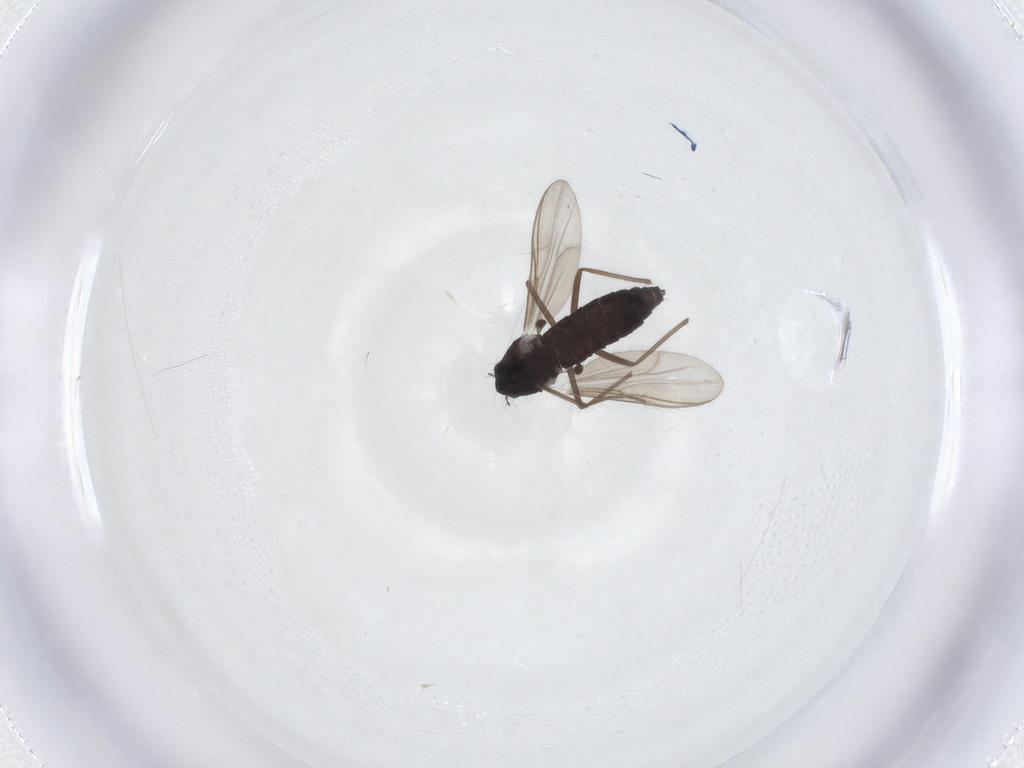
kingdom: Animalia
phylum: Arthropoda
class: Insecta
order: Diptera
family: Chironomidae
